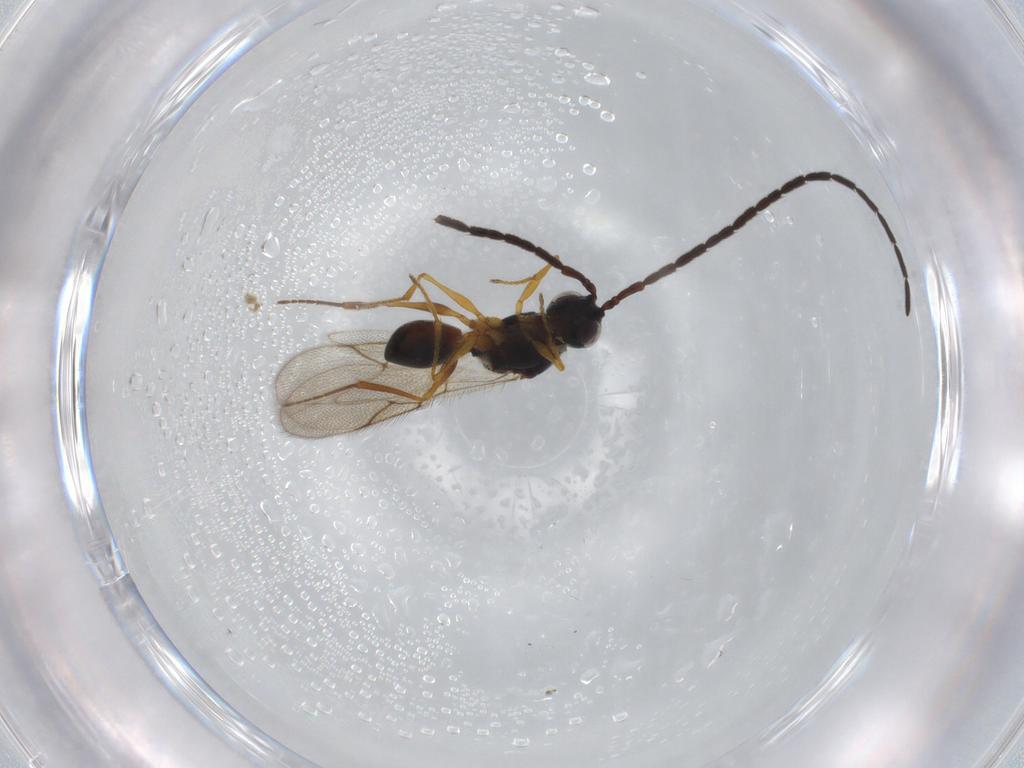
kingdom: Animalia
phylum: Arthropoda
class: Insecta
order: Hymenoptera
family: Figitidae
